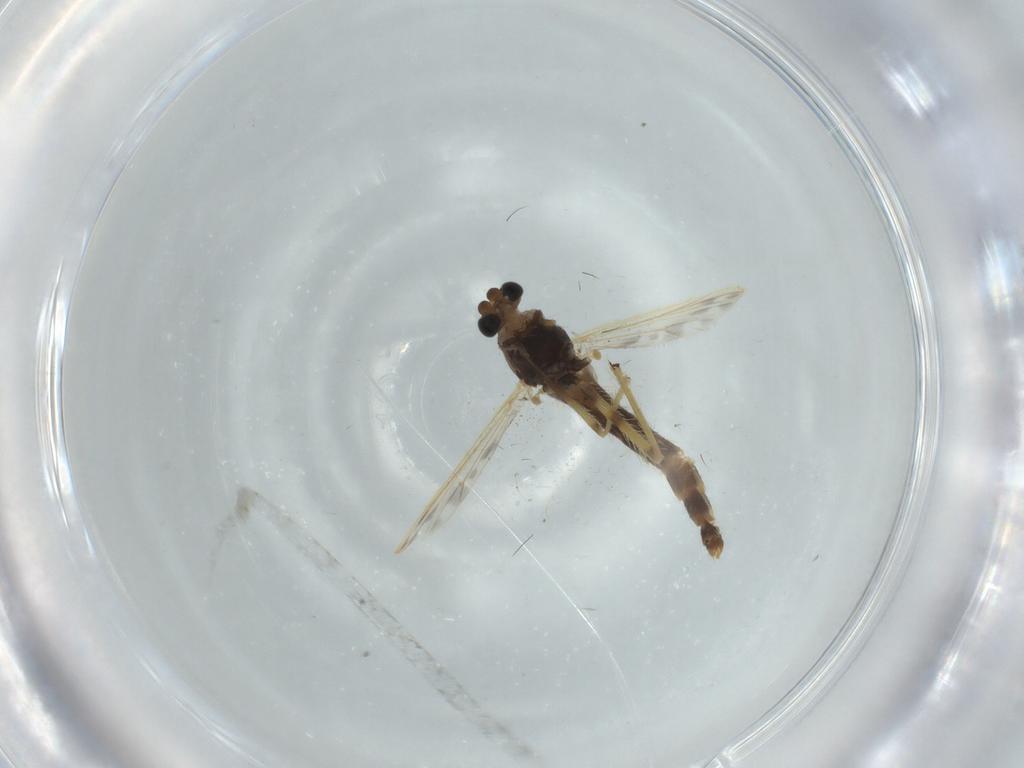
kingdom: Animalia
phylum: Arthropoda
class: Insecta
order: Diptera
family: Chironomidae
